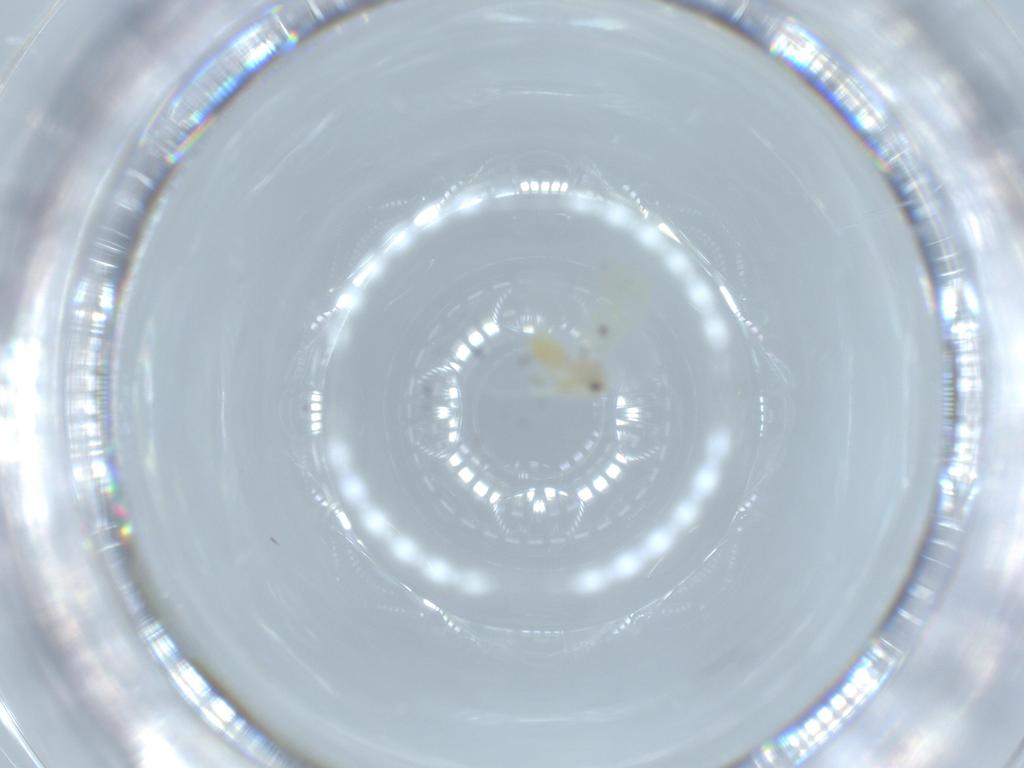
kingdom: Animalia
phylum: Arthropoda
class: Insecta
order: Hemiptera
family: Aleyrodidae
